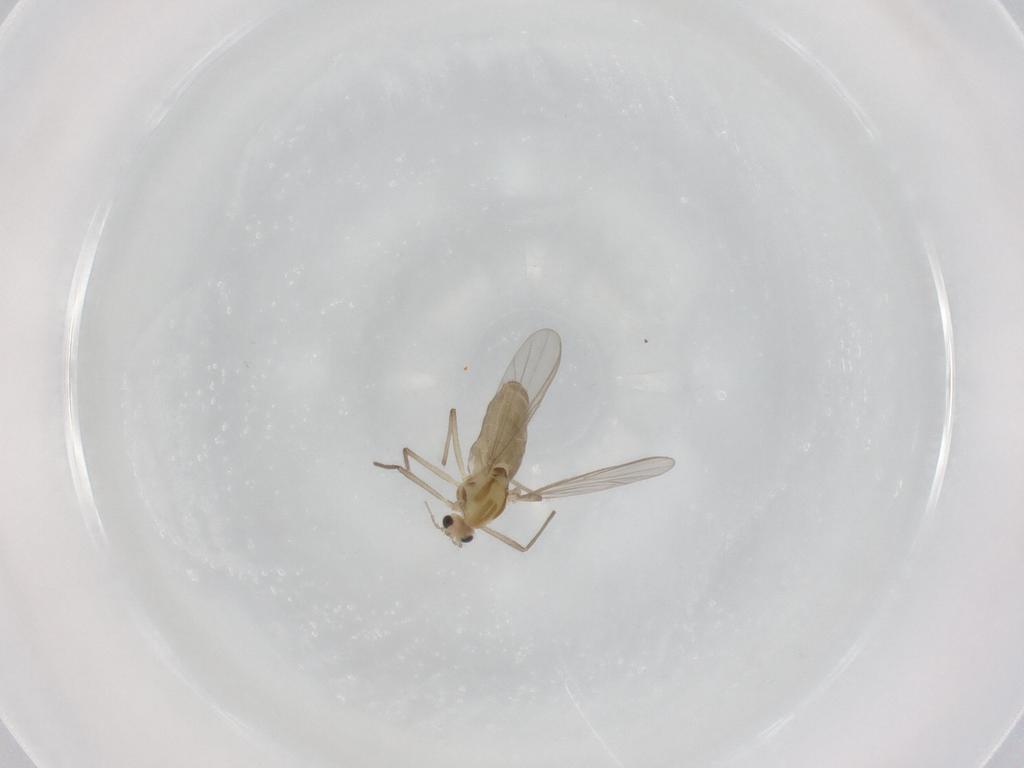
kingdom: Animalia
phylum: Arthropoda
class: Insecta
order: Diptera
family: Chironomidae
